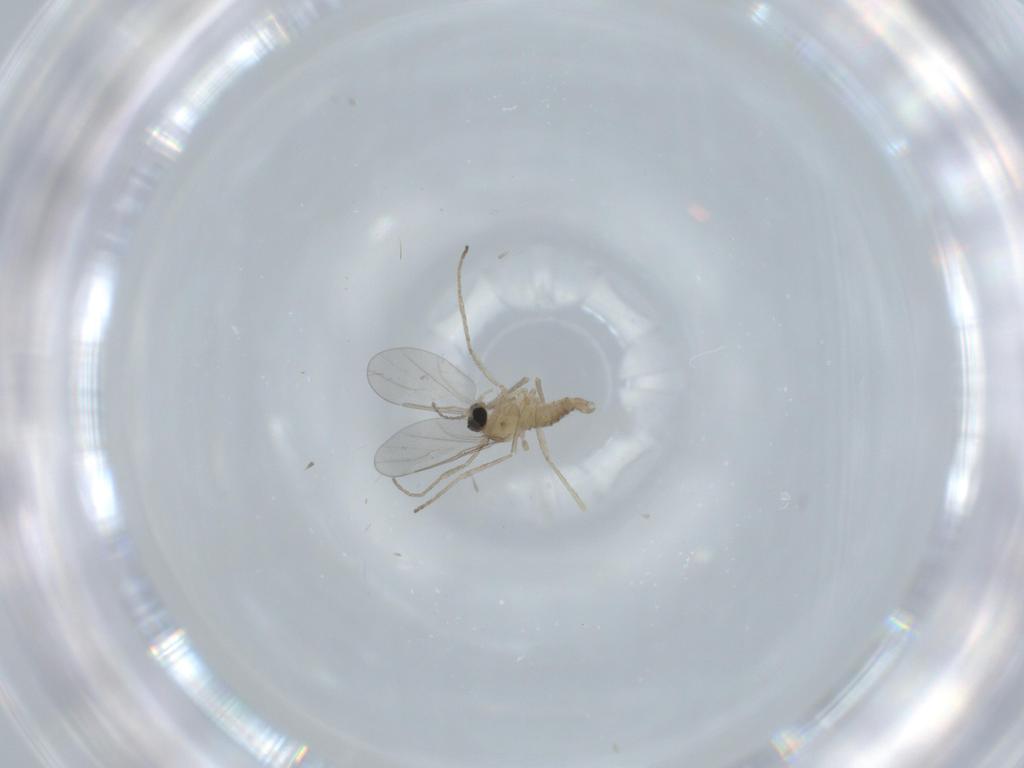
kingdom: Animalia
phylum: Arthropoda
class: Insecta
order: Diptera
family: Cecidomyiidae
